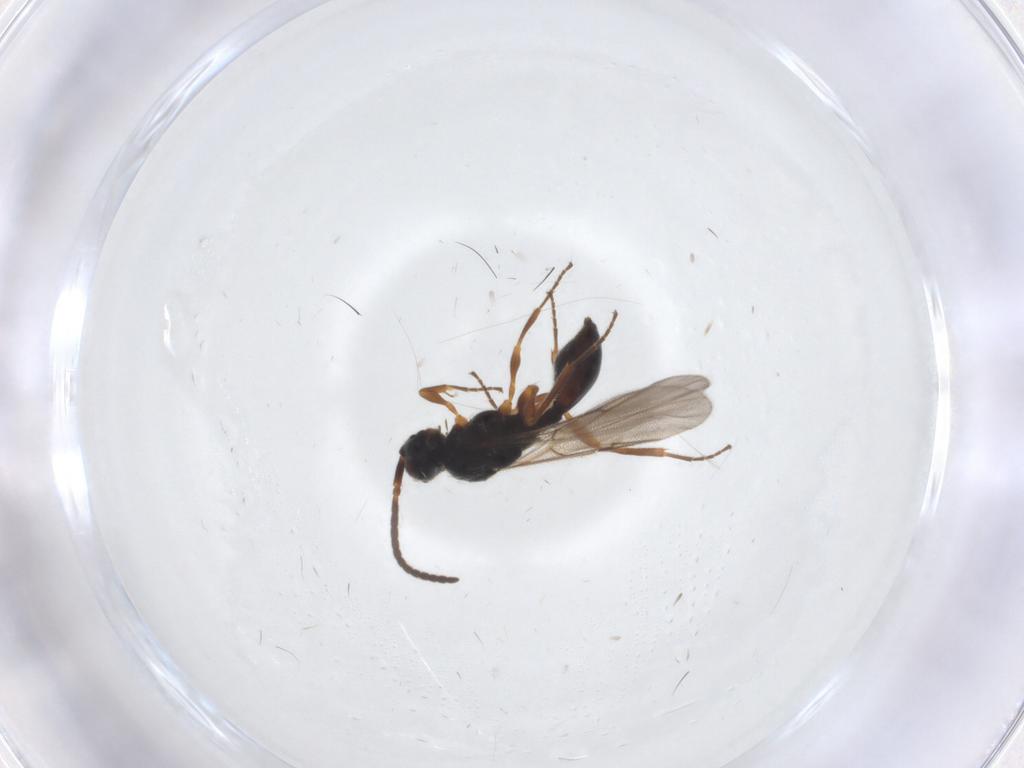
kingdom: Animalia
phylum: Arthropoda
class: Insecta
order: Hymenoptera
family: Diapriidae
